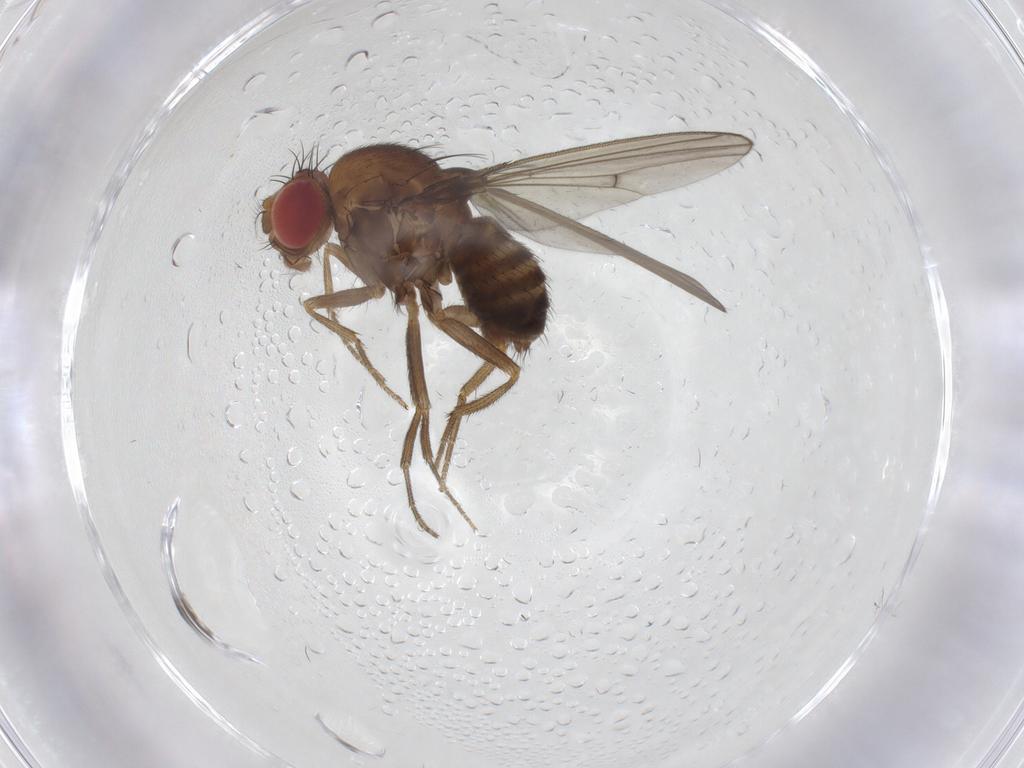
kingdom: Animalia
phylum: Arthropoda
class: Insecta
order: Diptera
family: Drosophilidae
